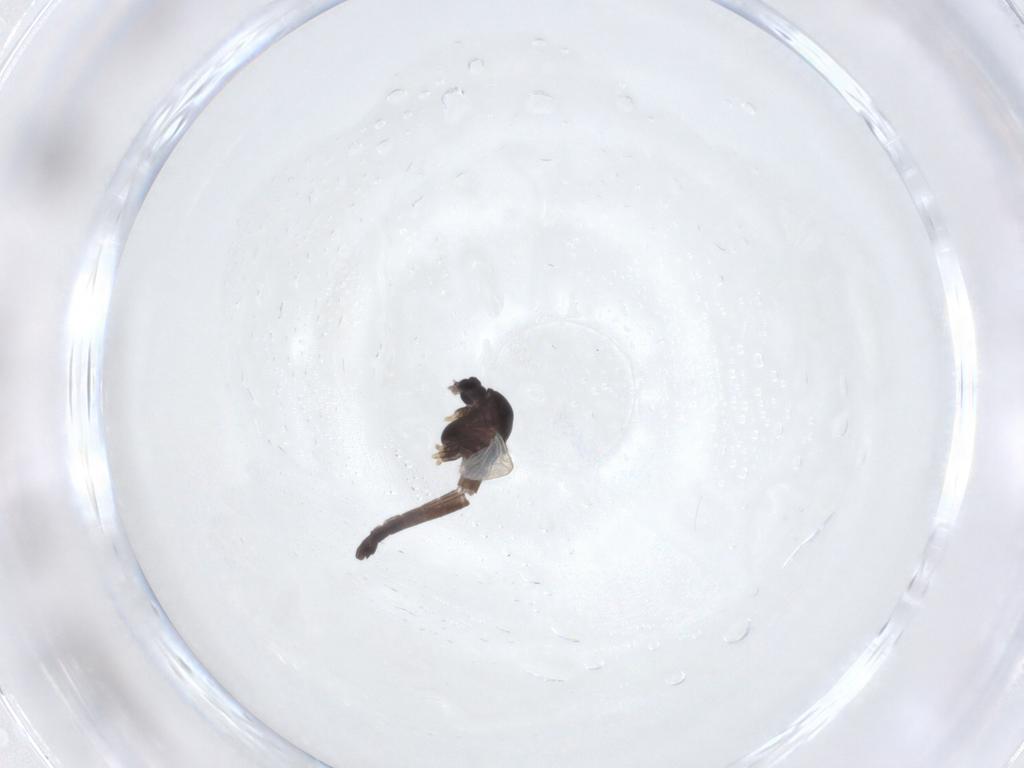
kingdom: Animalia
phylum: Arthropoda
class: Insecta
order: Diptera
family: Chironomidae
